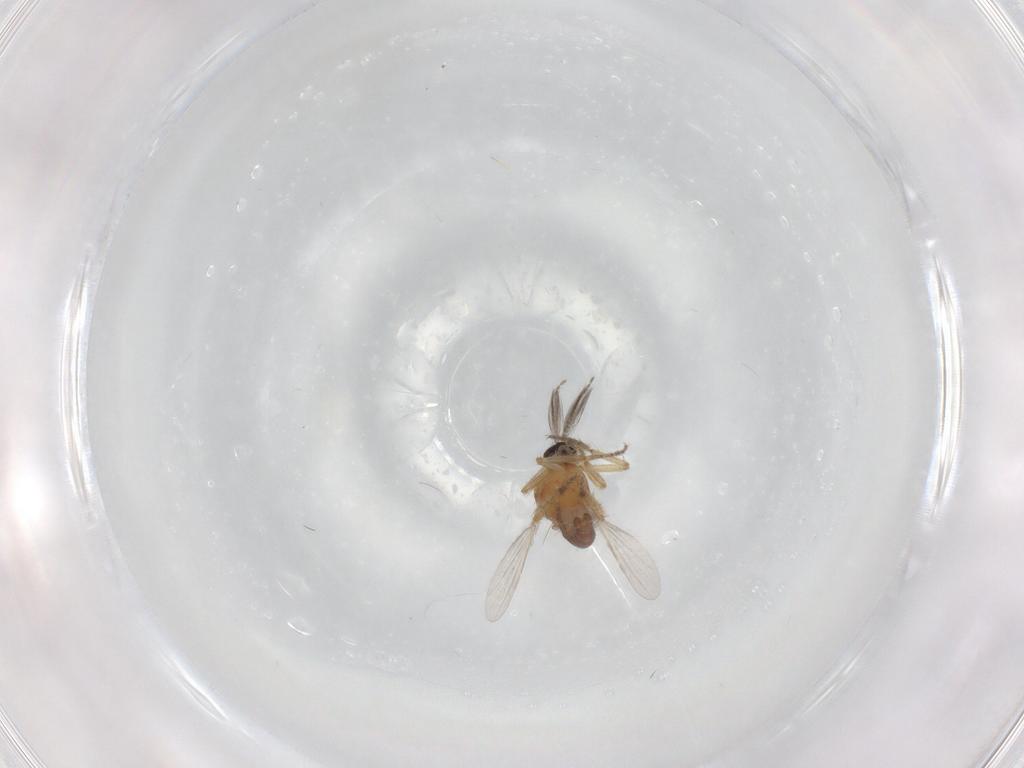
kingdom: Animalia
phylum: Arthropoda
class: Insecta
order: Diptera
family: Ceratopogonidae
